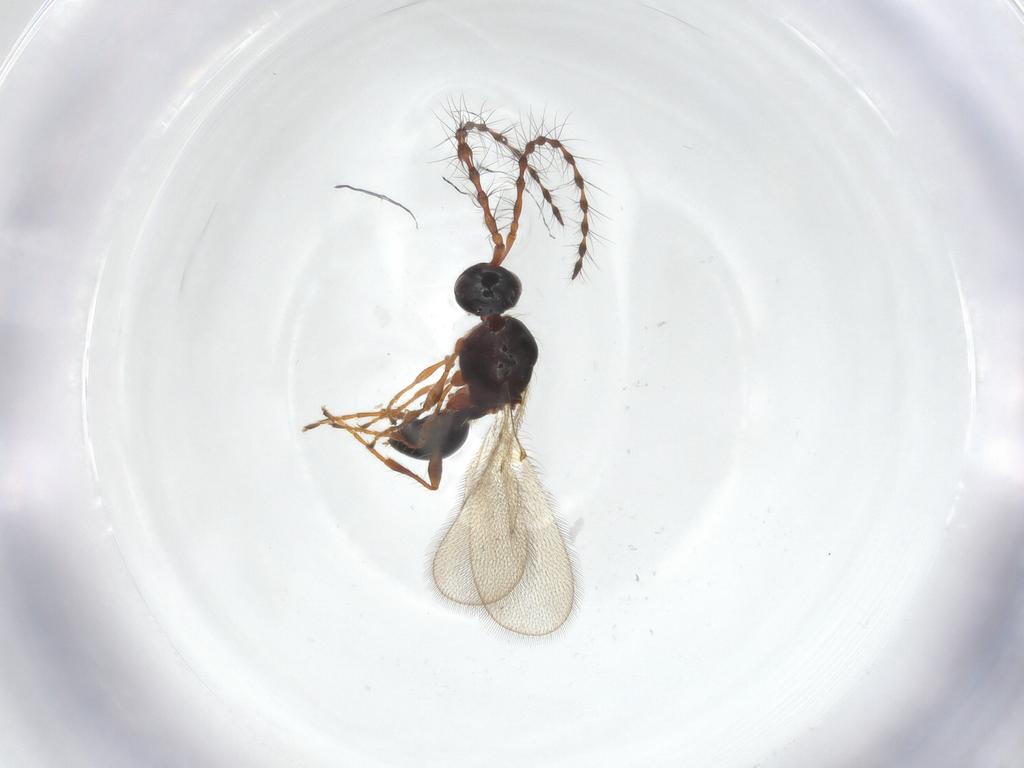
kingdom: Animalia
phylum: Arthropoda
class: Insecta
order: Hymenoptera
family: Diapriidae
